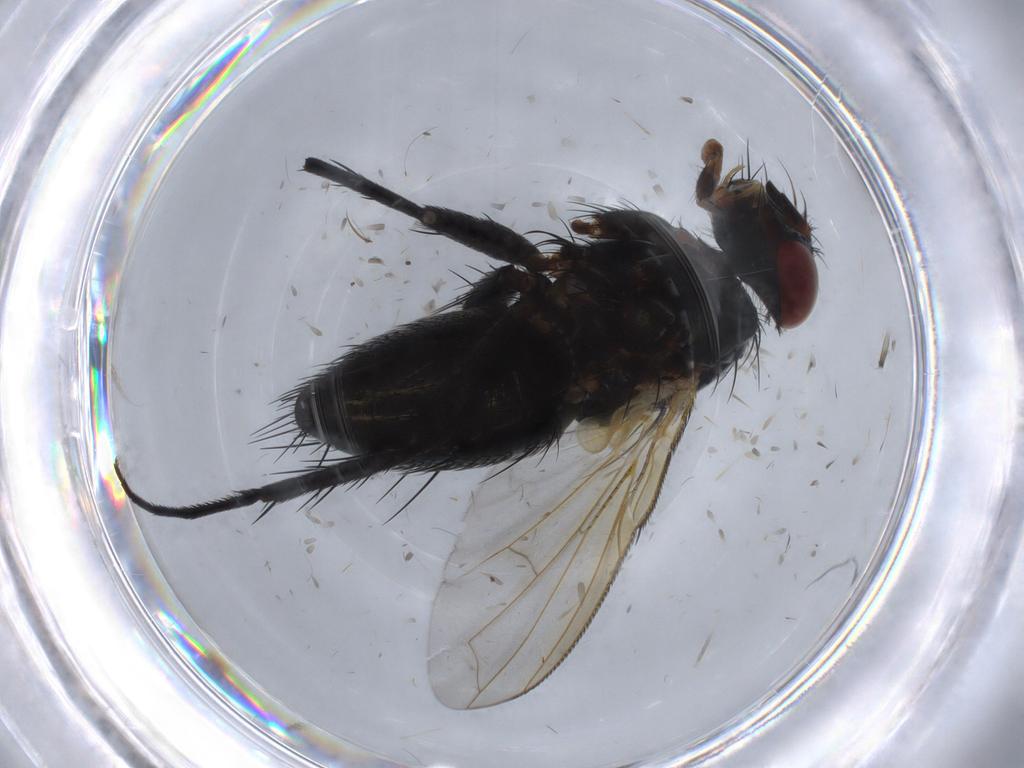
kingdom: Animalia
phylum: Arthropoda
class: Insecta
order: Diptera
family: Tachinidae
